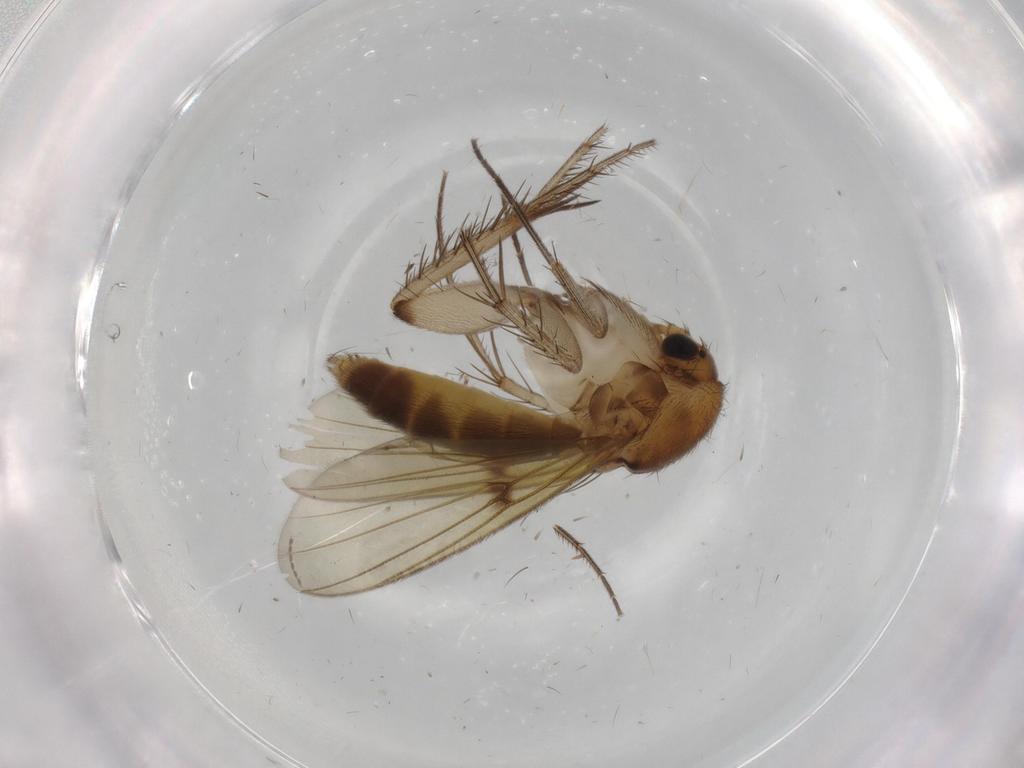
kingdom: Animalia
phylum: Arthropoda
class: Insecta
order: Diptera
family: Mycetophilidae
